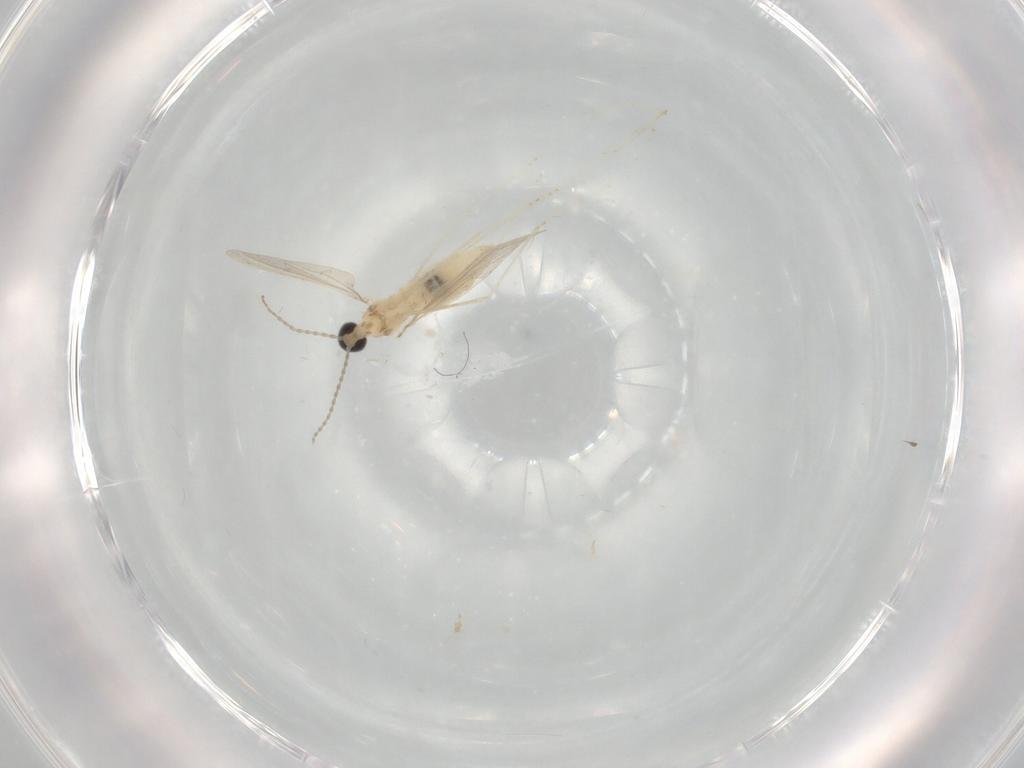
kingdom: Animalia
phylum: Arthropoda
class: Insecta
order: Diptera
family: Cecidomyiidae
